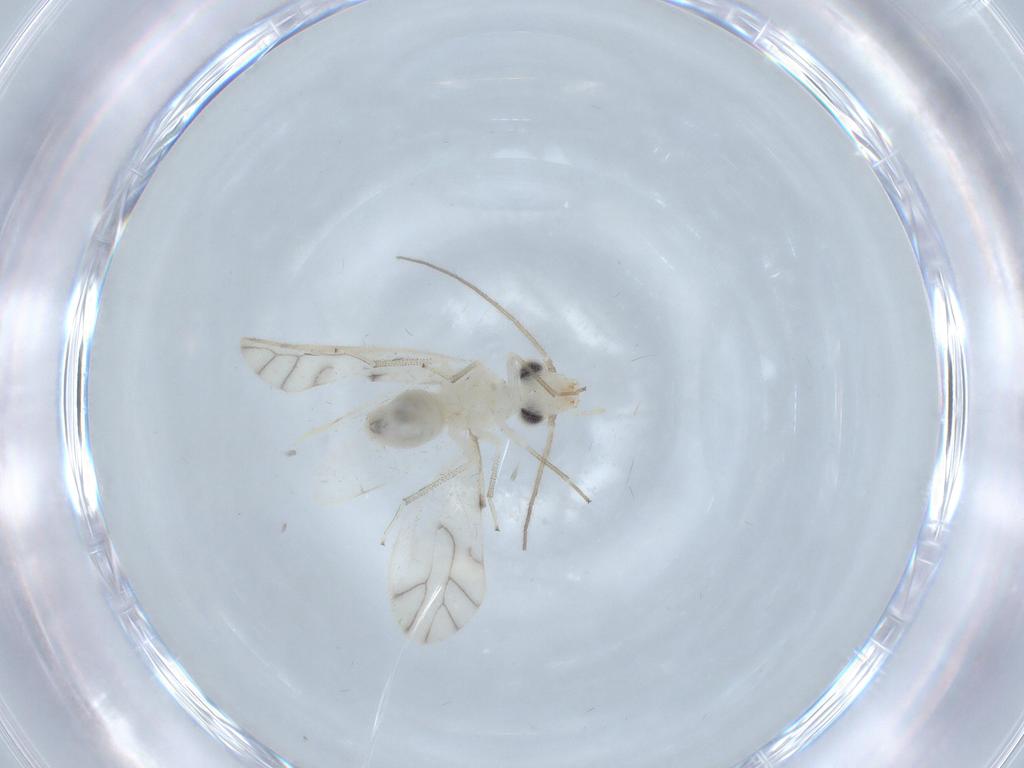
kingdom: Animalia
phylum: Arthropoda
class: Insecta
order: Psocodea
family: Caeciliusidae
